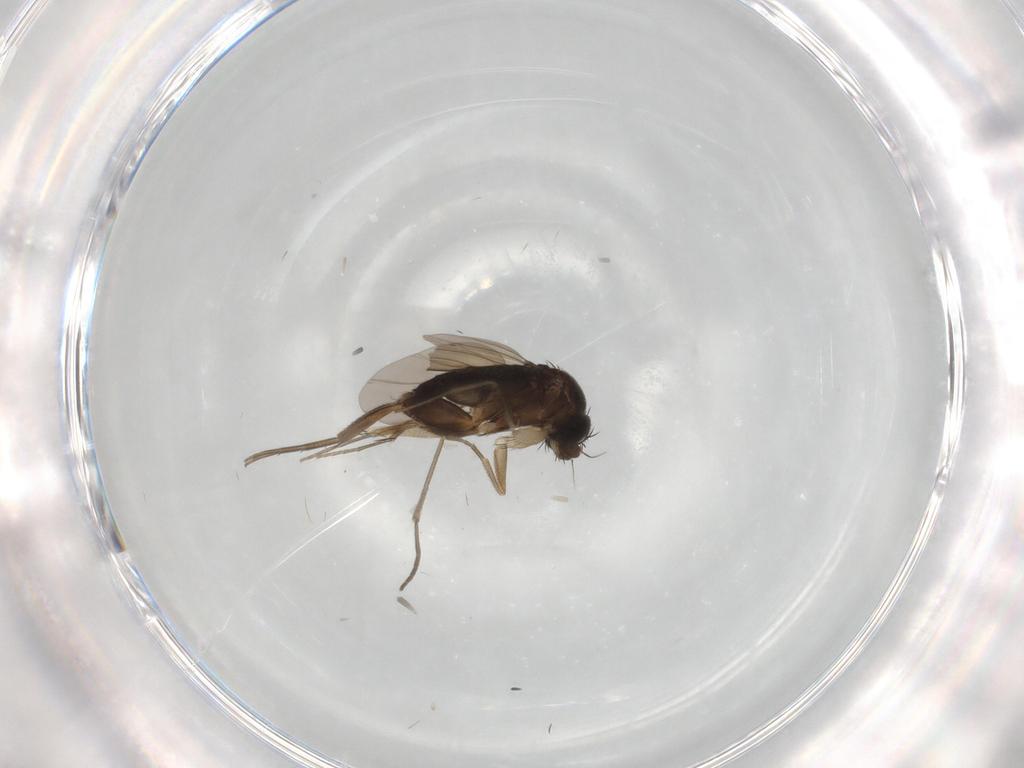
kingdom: Animalia
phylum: Arthropoda
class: Insecta
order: Diptera
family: Phoridae
